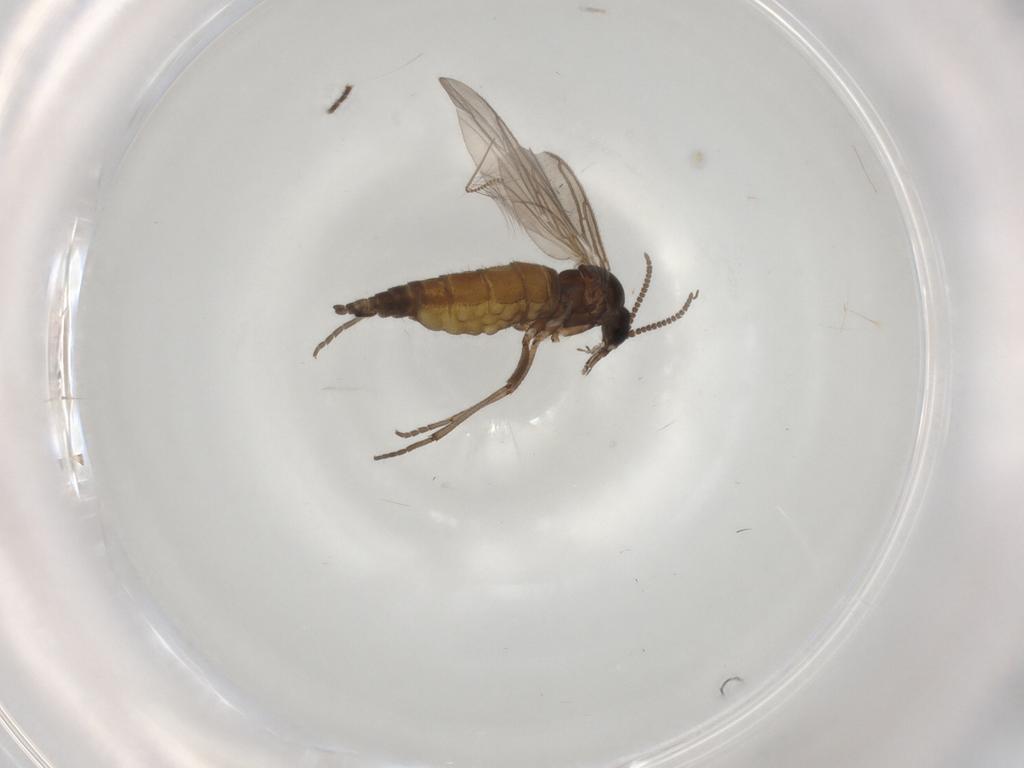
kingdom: Animalia
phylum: Arthropoda
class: Insecta
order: Diptera
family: Sciaridae
